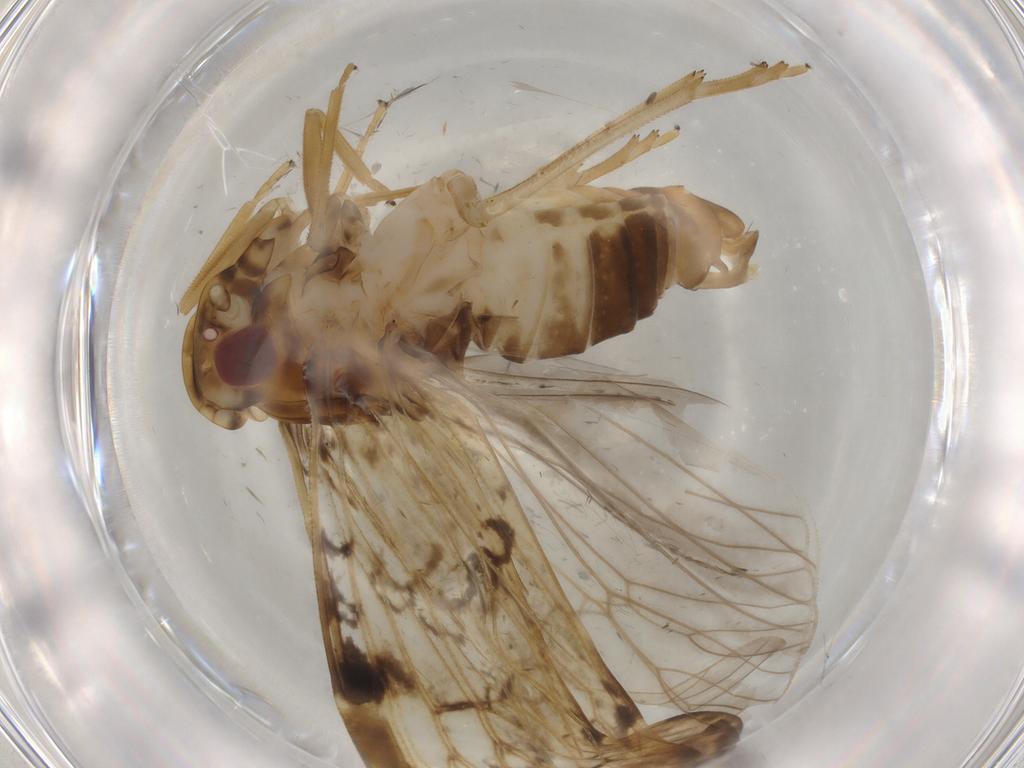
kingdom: Animalia
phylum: Arthropoda
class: Insecta
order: Hemiptera
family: Cixiidae
